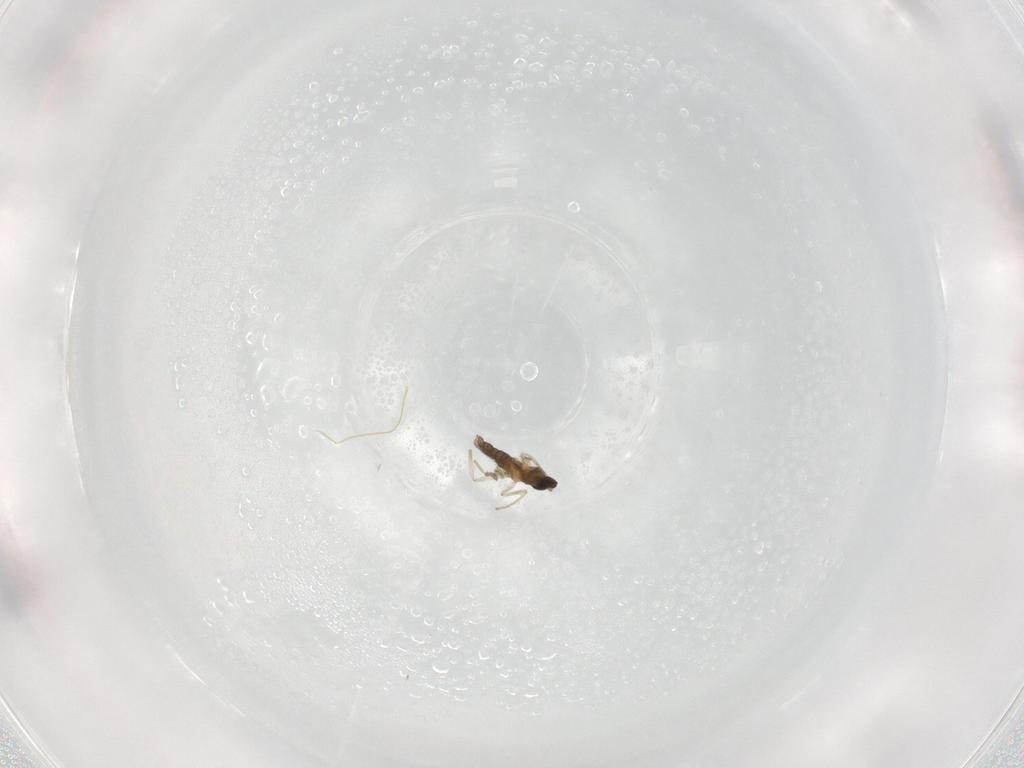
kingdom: Animalia
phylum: Arthropoda
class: Insecta
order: Diptera
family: Cecidomyiidae
